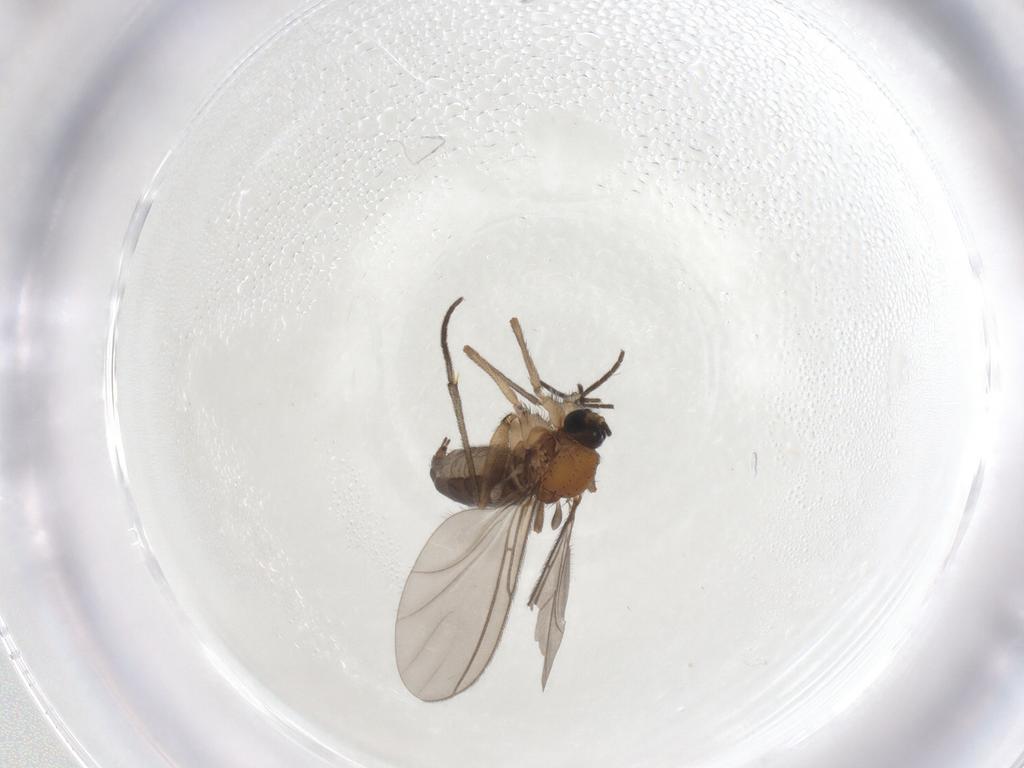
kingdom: Animalia
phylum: Arthropoda
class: Insecta
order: Diptera
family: Sciaridae
